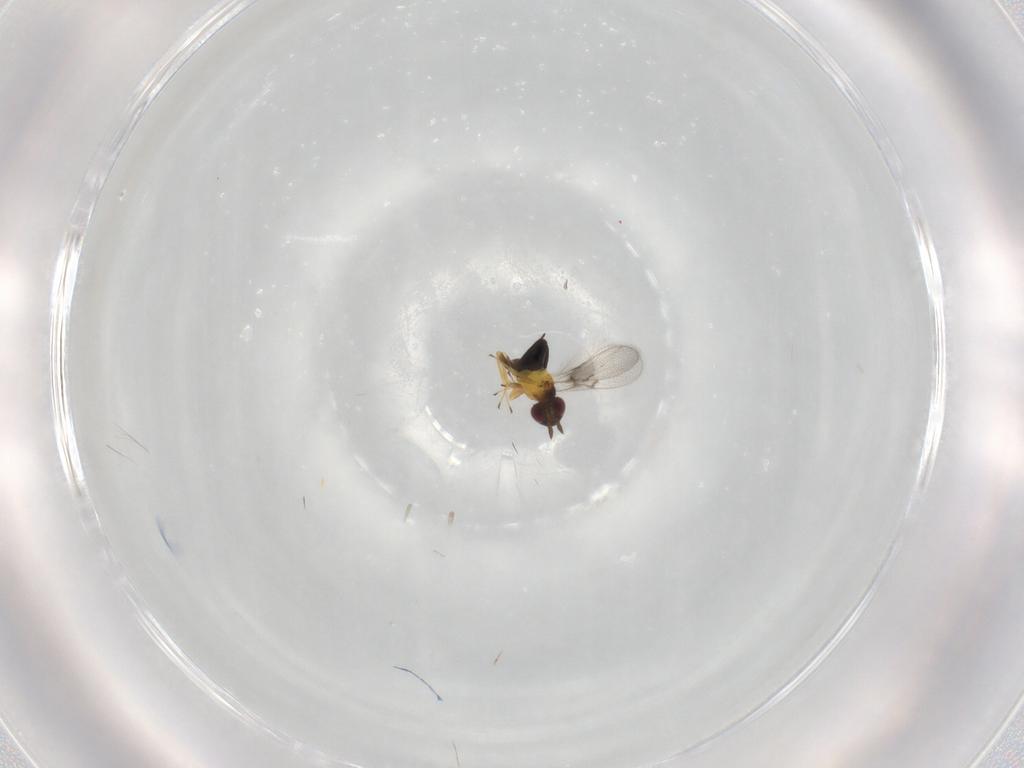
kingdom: Animalia
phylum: Arthropoda
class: Insecta
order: Hymenoptera
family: Trichogrammatidae
